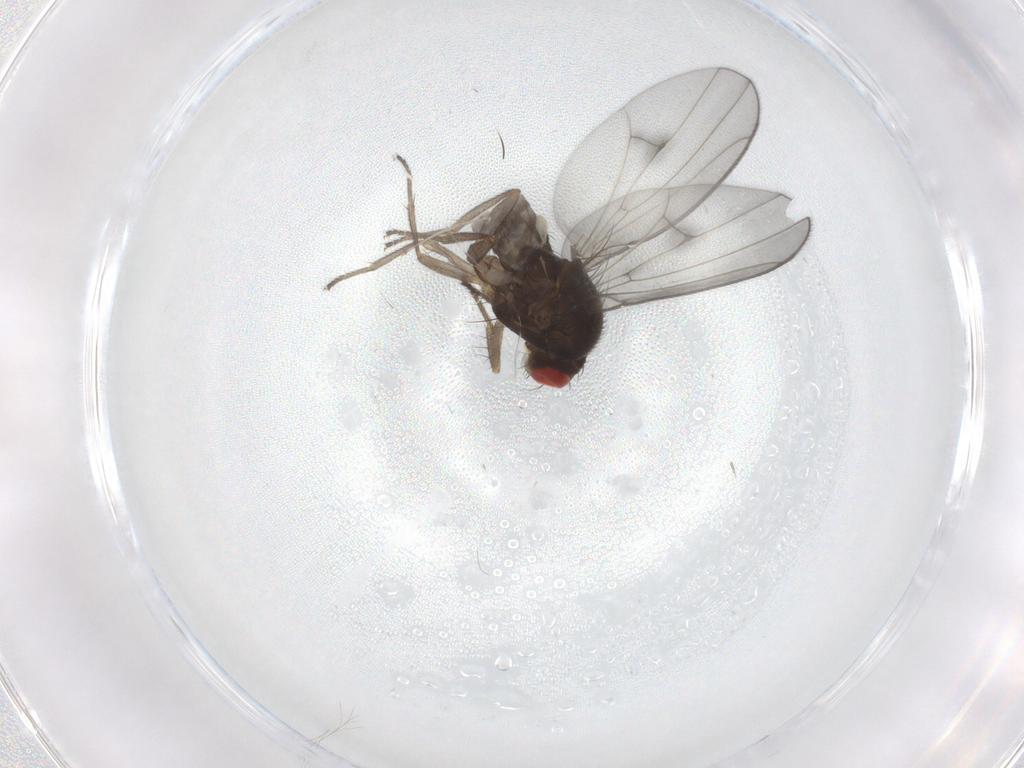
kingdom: Animalia
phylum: Arthropoda
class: Insecta
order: Diptera
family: Drosophilidae
